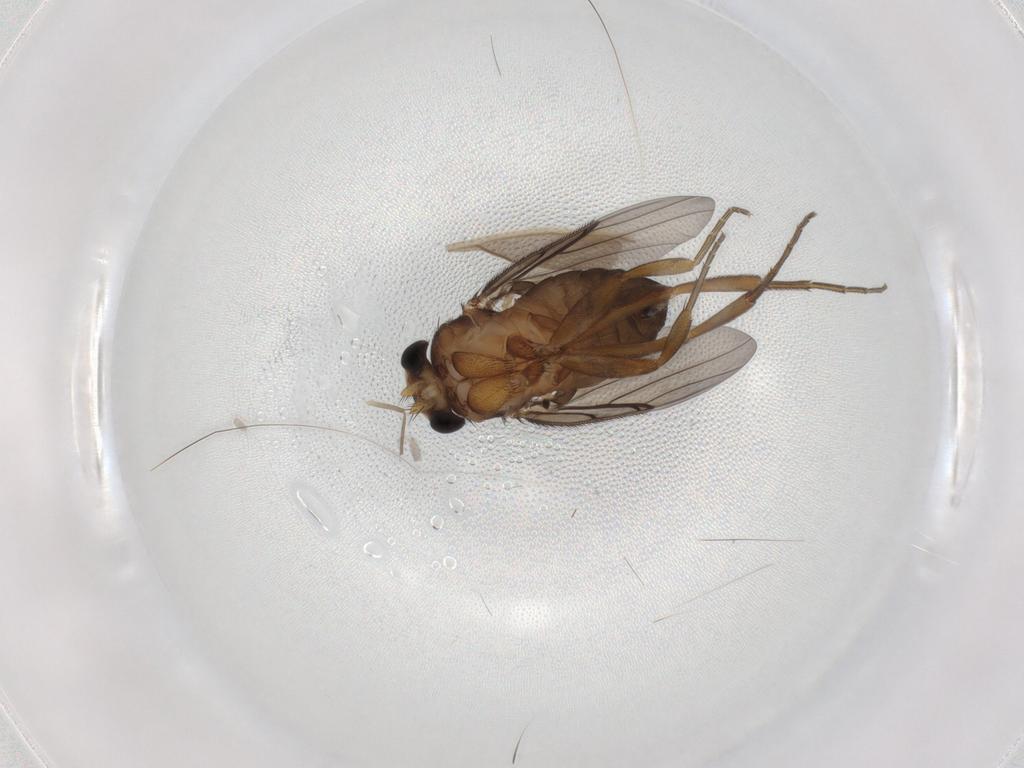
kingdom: Animalia
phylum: Arthropoda
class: Insecta
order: Diptera
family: Phoridae
